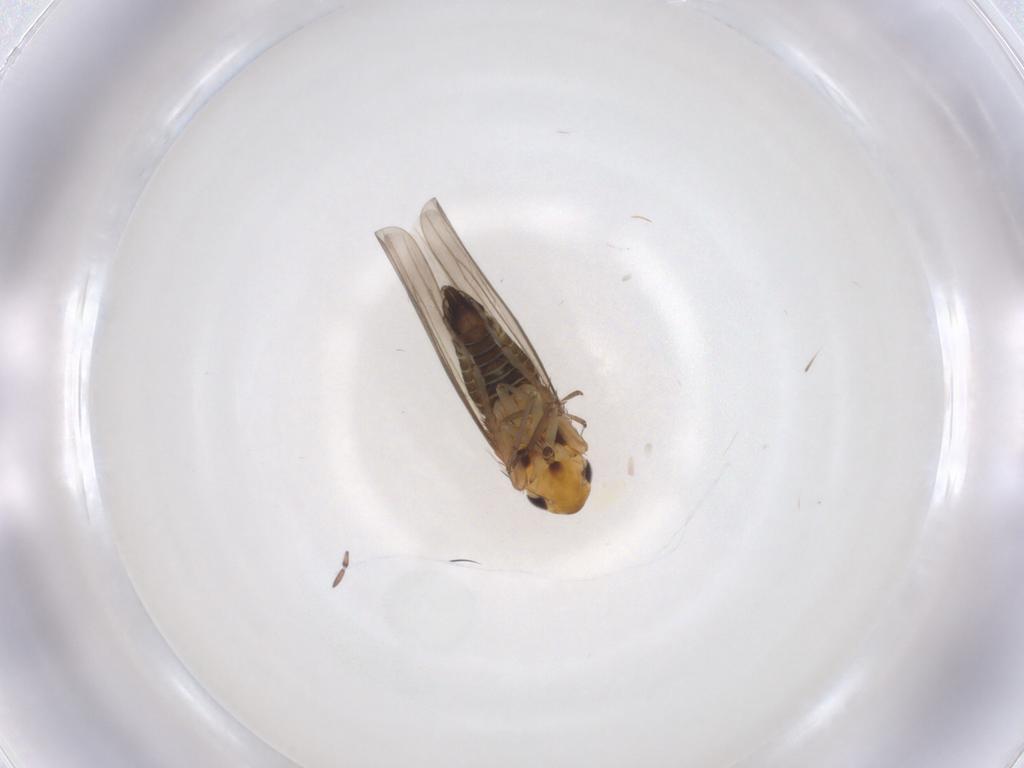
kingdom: Animalia
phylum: Arthropoda
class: Insecta
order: Hemiptera
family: Cicadellidae
